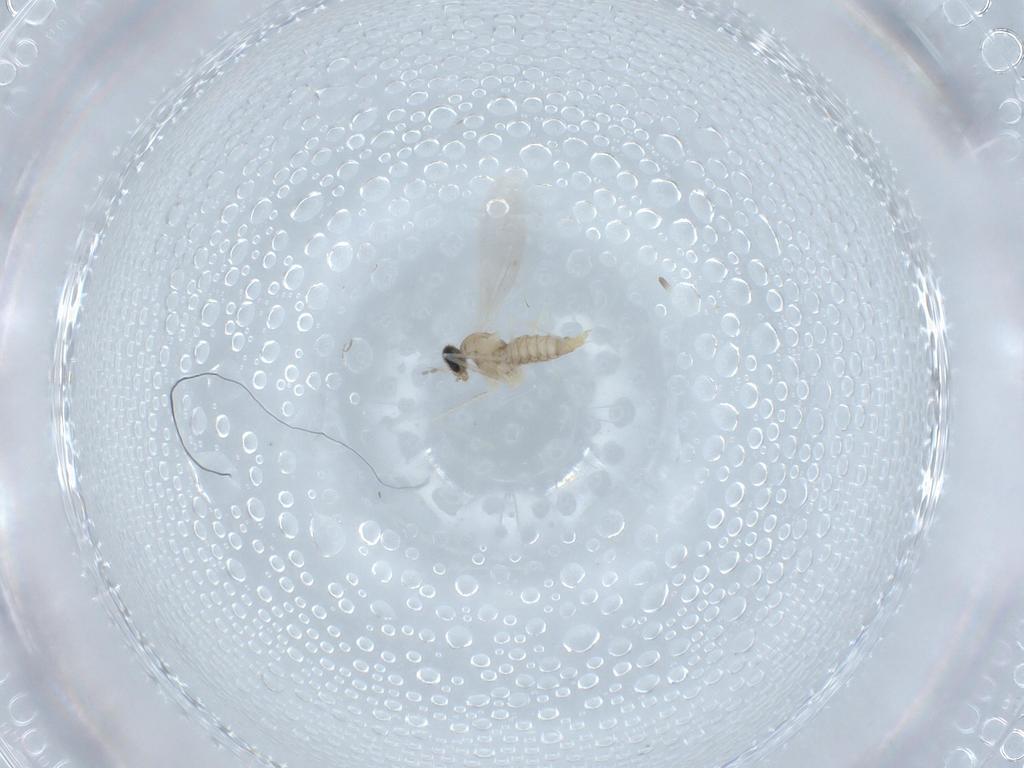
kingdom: Animalia
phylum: Arthropoda
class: Insecta
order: Diptera
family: Cecidomyiidae
